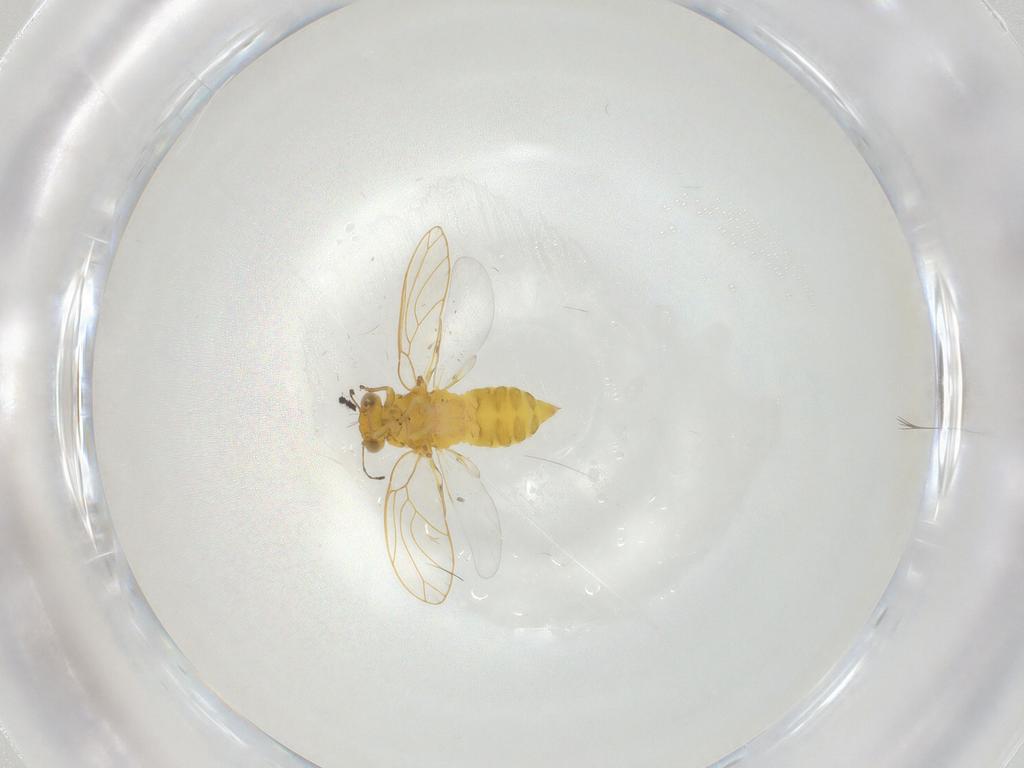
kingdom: Animalia
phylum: Arthropoda
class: Insecta
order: Hemiptera
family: Psylloidea_incertae_sedis
